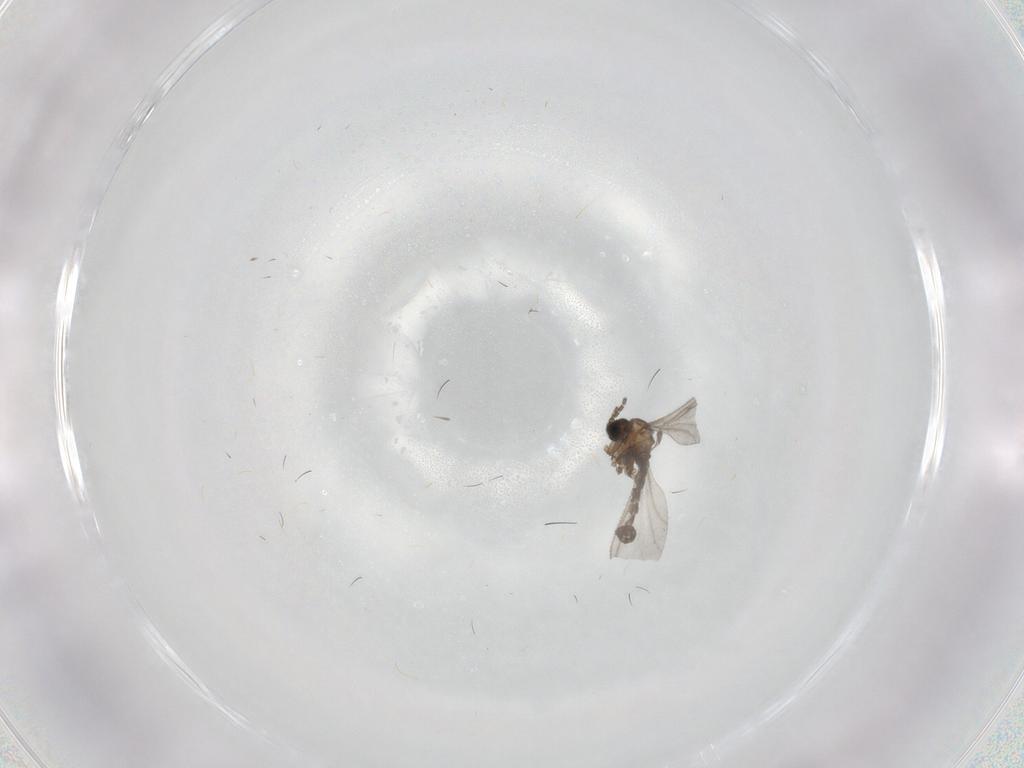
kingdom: Animalia
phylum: Arthropoda
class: Insecta
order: Diptera
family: Sciaridae
